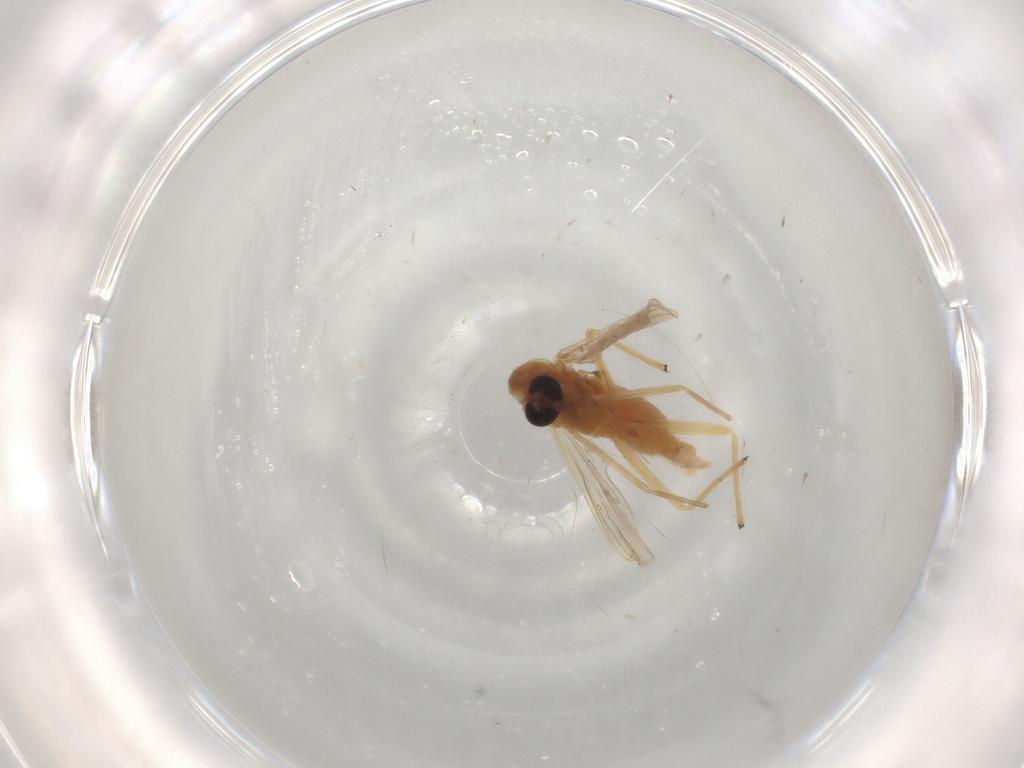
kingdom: Animalia
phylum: Arthropoda
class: Insecta
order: Diptera
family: Chironomidae
